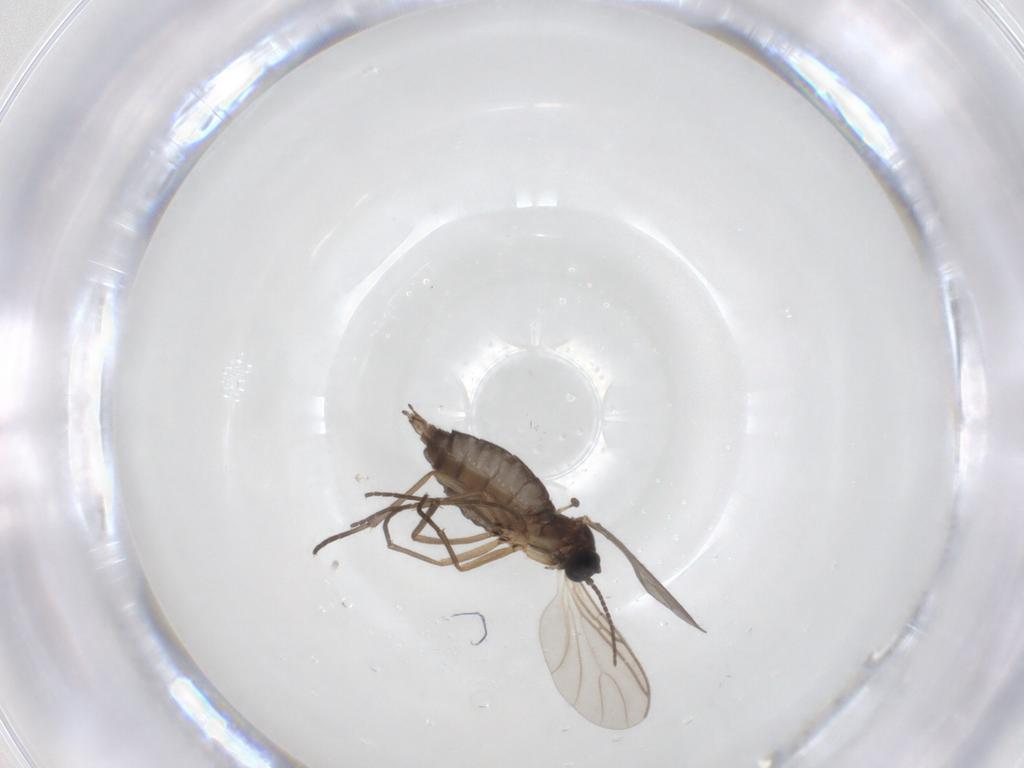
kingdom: Animalia
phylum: Arthropoda
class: Insecta
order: Diptera
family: Sciaridae
